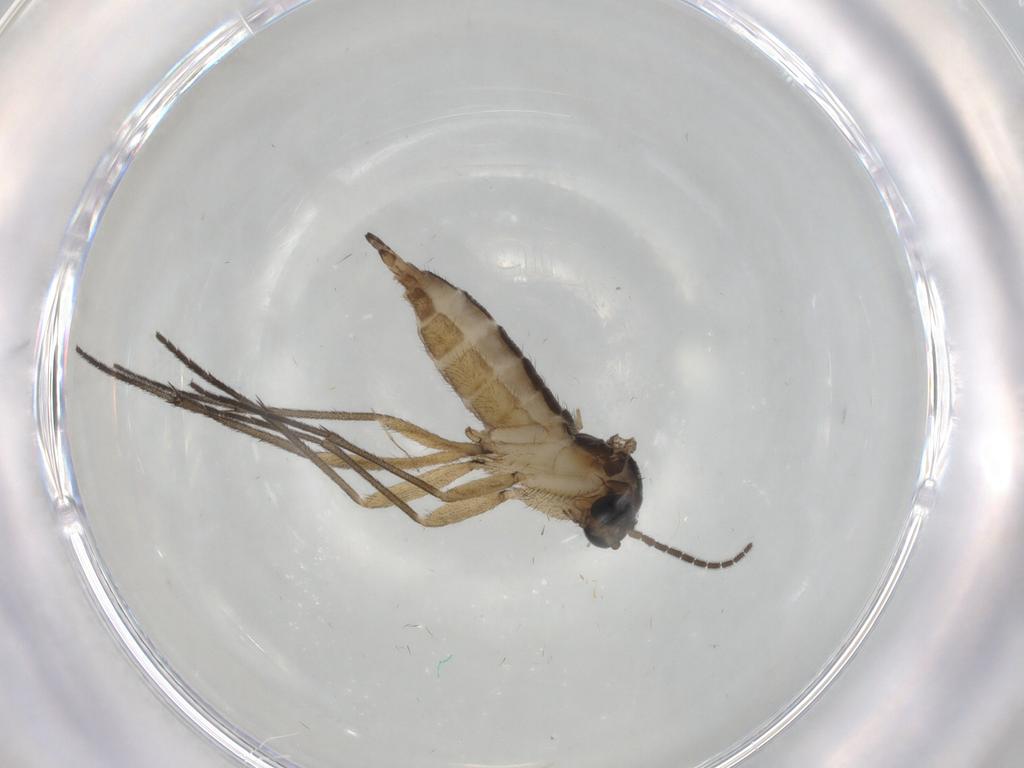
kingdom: Animalia
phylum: Arthropoda
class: Insecta
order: Diptera
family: Sciaridae
